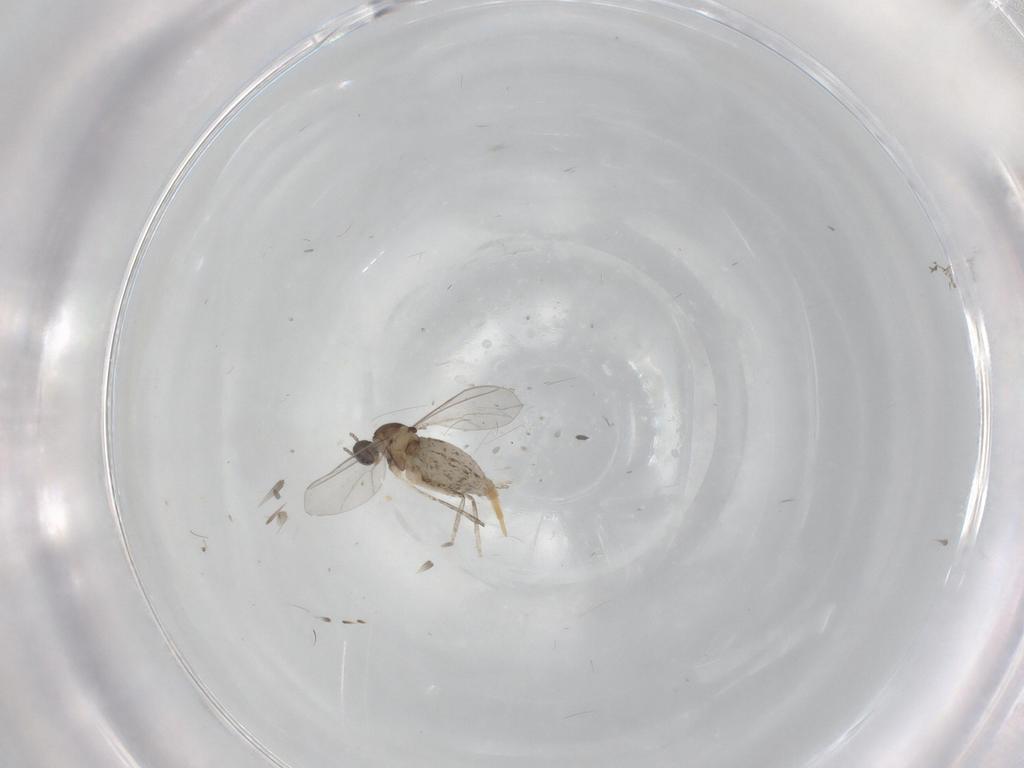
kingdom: Animalia
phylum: Arthropoda
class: Insecta
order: Diptera
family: Cecidomyiidae
